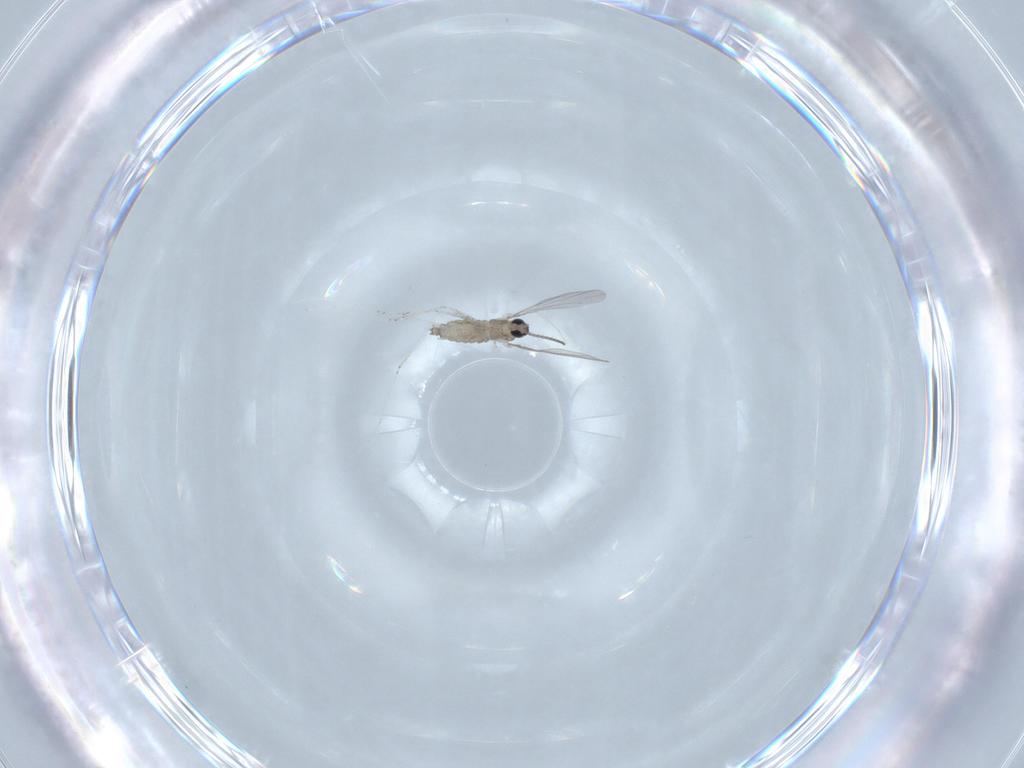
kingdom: Animalia
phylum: Arthropoda
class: Insecta
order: Diptera
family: Cecidomyiidae
